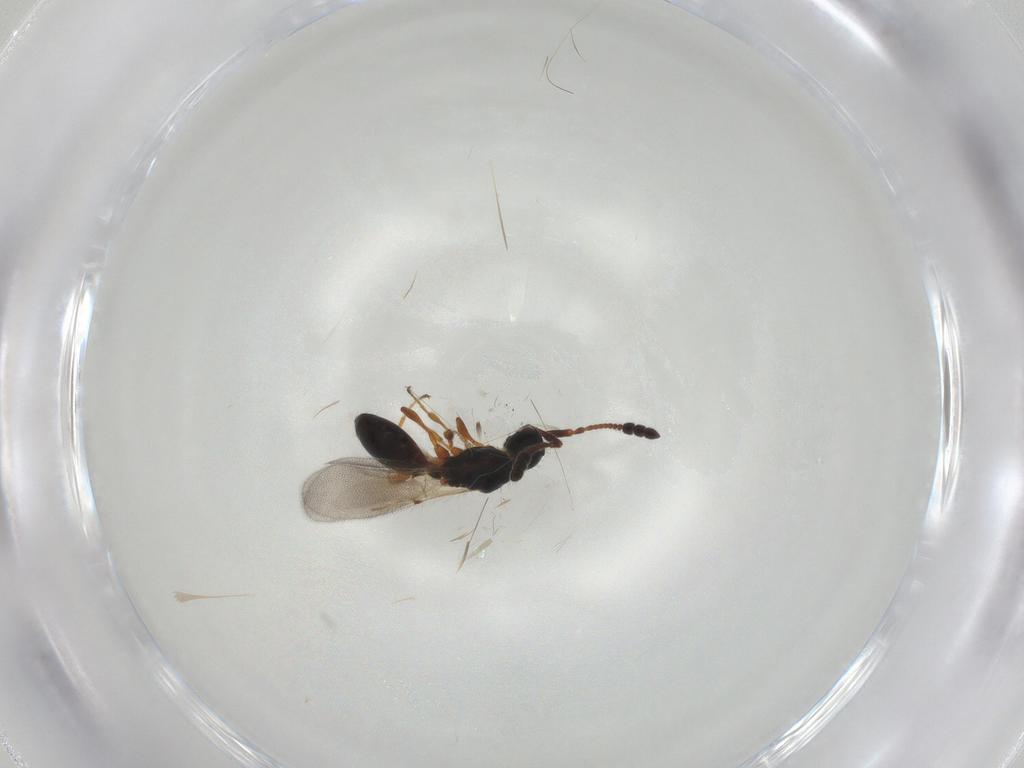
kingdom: Animalia
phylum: Arthropoda
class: Insecta
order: Hymenoptera
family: Diapriidae
